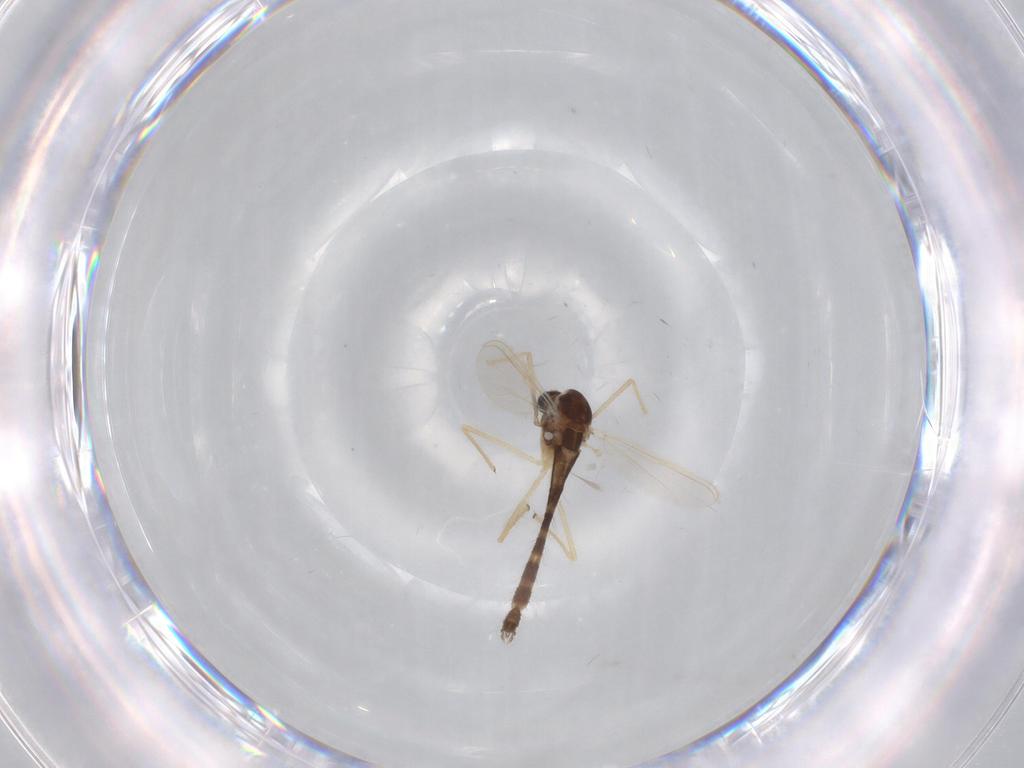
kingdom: Animalia
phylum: Arthropoda
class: Insecta
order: Diptera
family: Chironomidae
